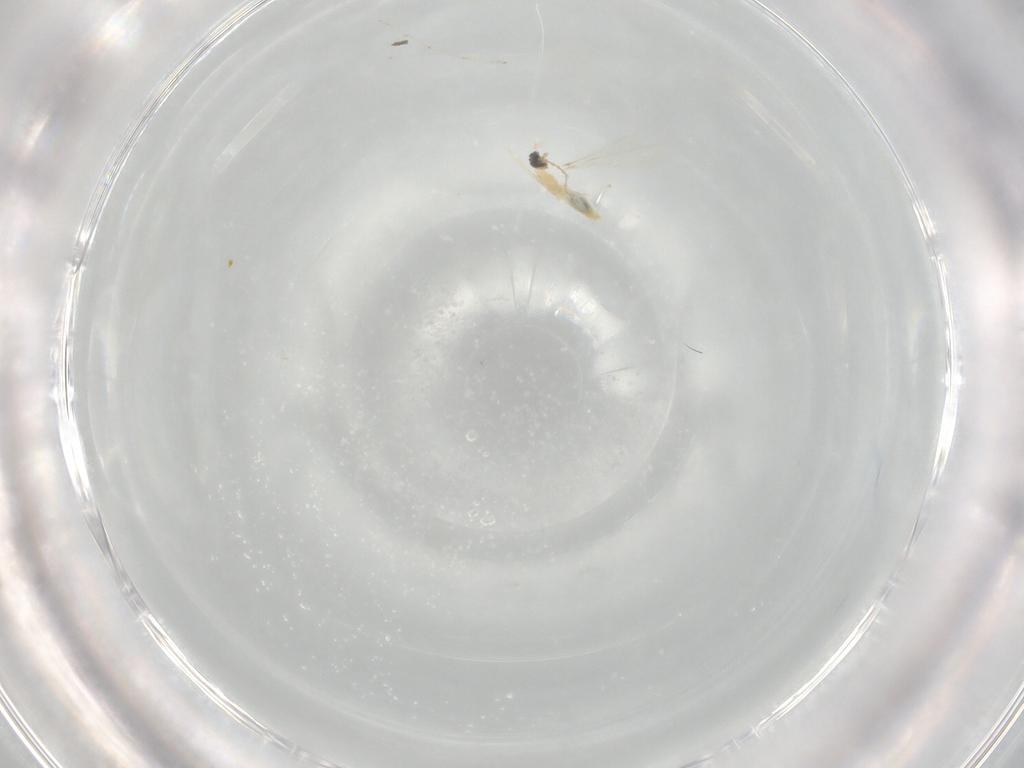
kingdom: Animalia
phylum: Arthropoda
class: Insecta
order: Diptera
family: Cecidomyiidae
